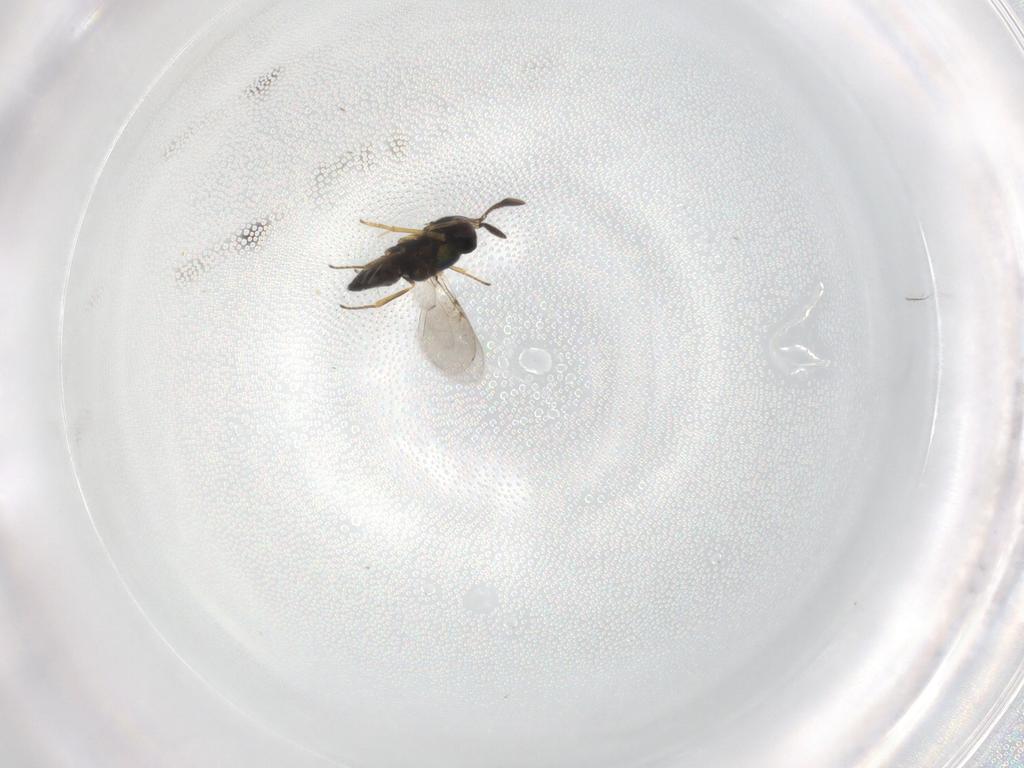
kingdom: Animalia
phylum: Arthropoda
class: Insecta
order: Hymenoptera
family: Encyrtidae
